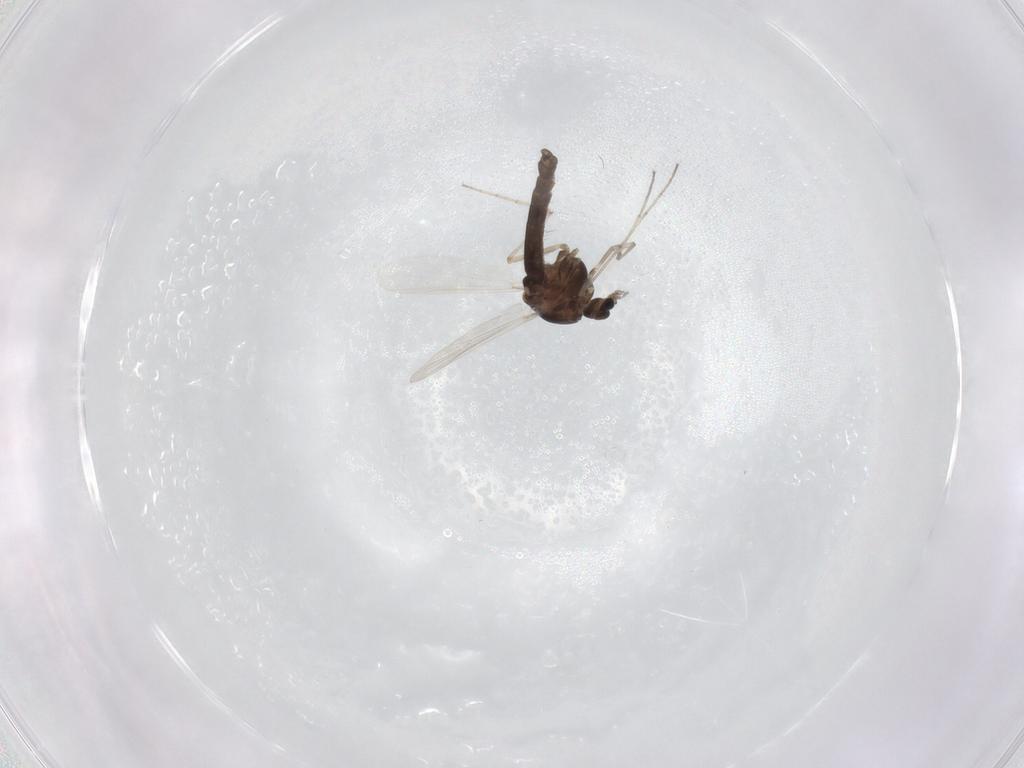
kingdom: Animalia
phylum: Arthropoda
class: Insecta
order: Diptera
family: Chironomidae
